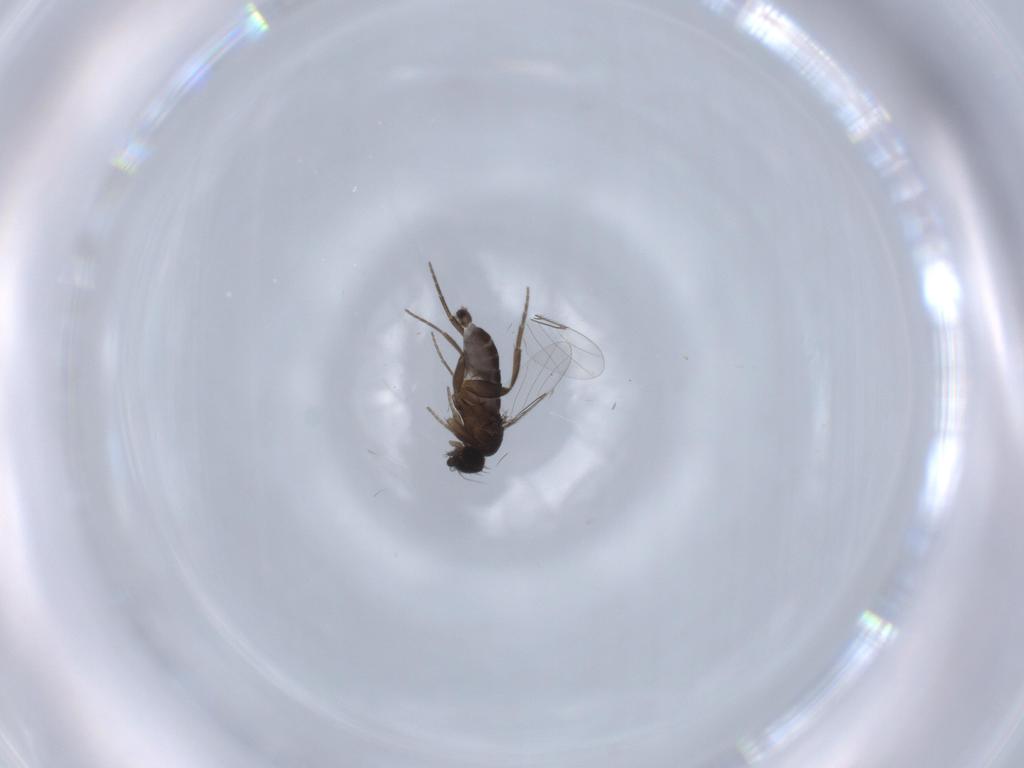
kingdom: Animalia
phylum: Arthropoda
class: Insecta
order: Diptera
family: Phoridae
